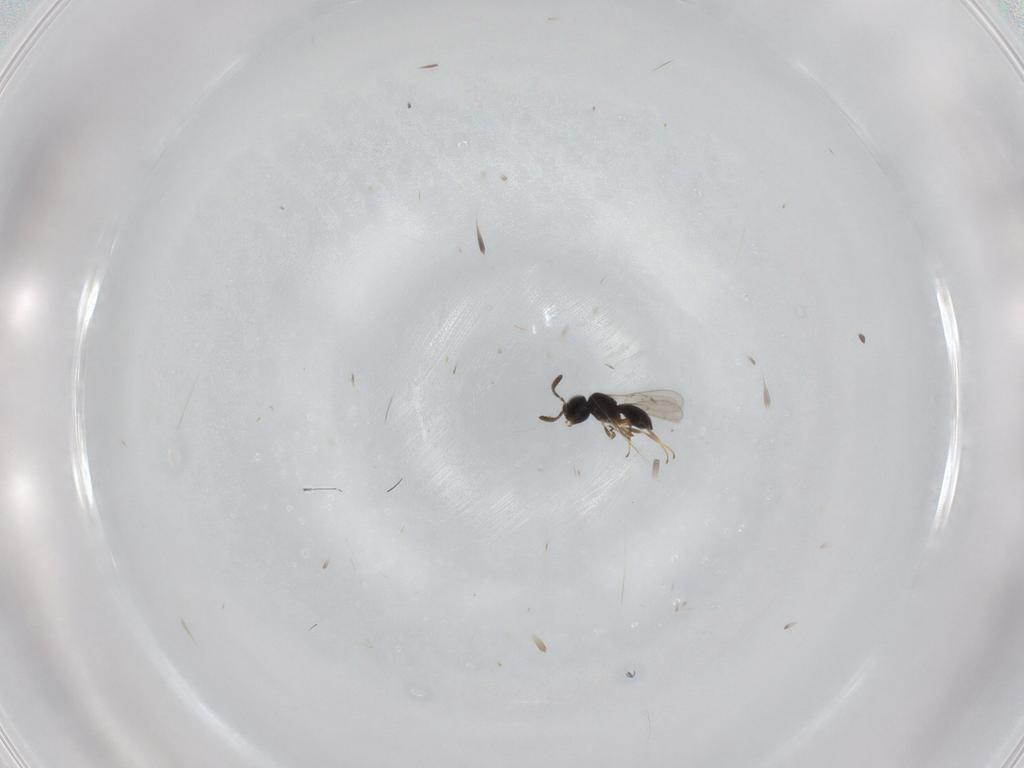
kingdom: Animalia
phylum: Arthropoda
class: Insecta
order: Hymenoptera
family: Scelionidae
